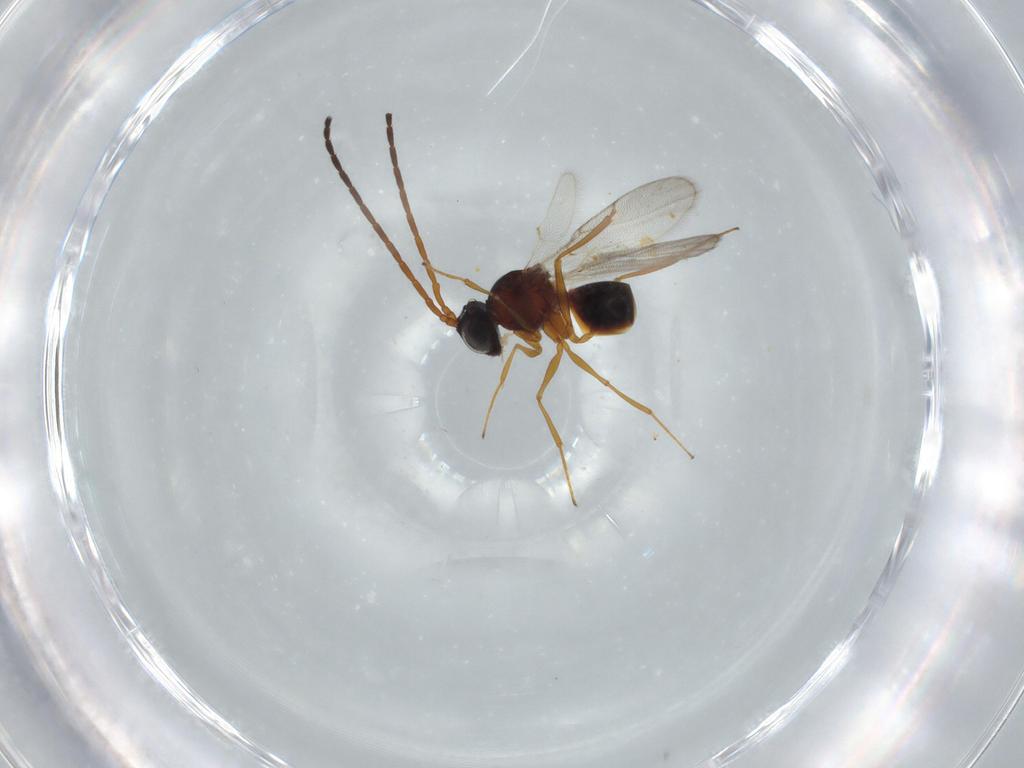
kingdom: Animalia
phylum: Arthropoda
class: Insecta
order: Hymenoptera
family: Figitidae
